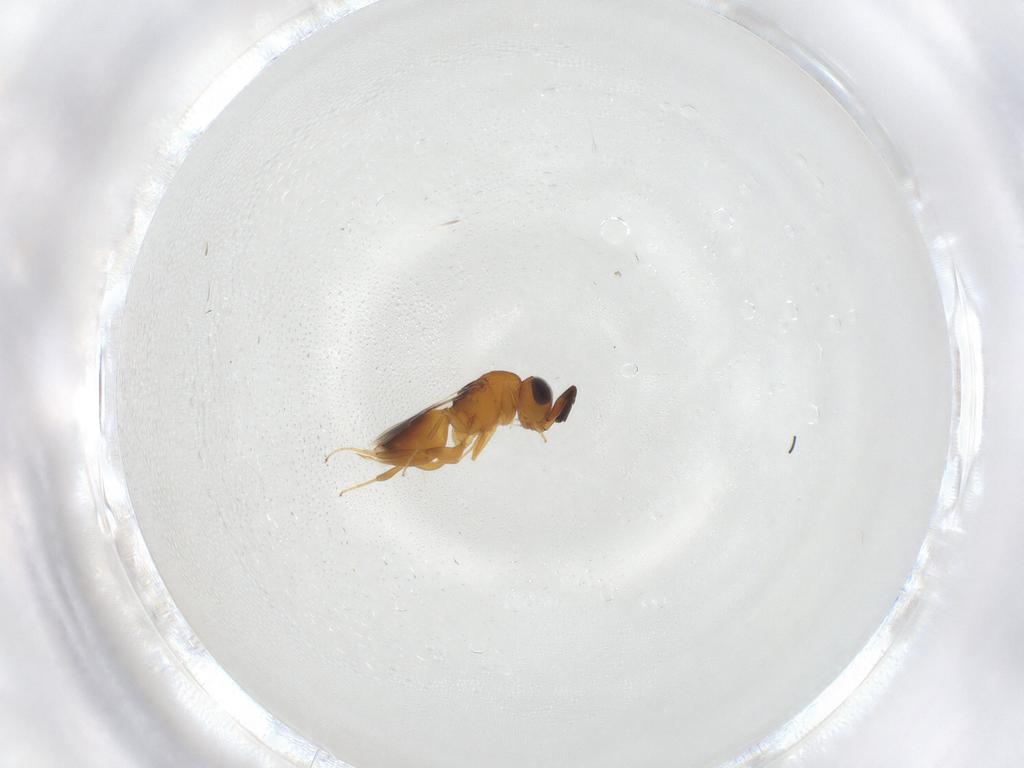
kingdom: Animalia
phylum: Arthropoda
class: Insecta
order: Hymenoptera
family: Megaspilidae
